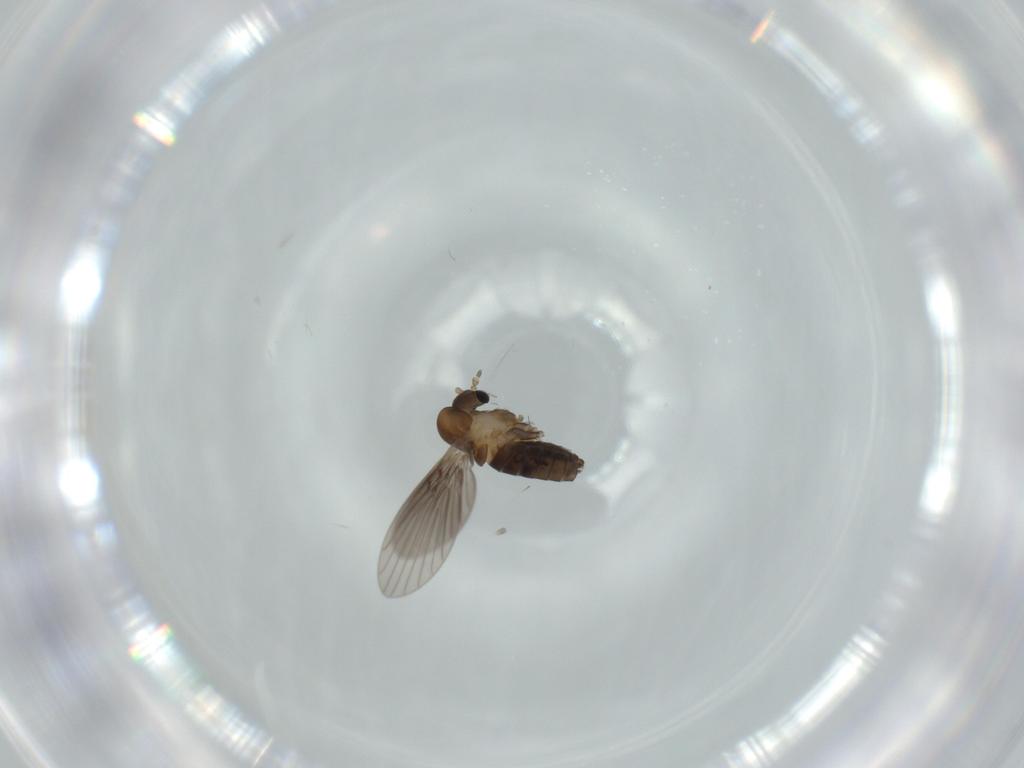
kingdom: Animalia
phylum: Arthropoda
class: Insecta
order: Diptera
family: Psychodidae
